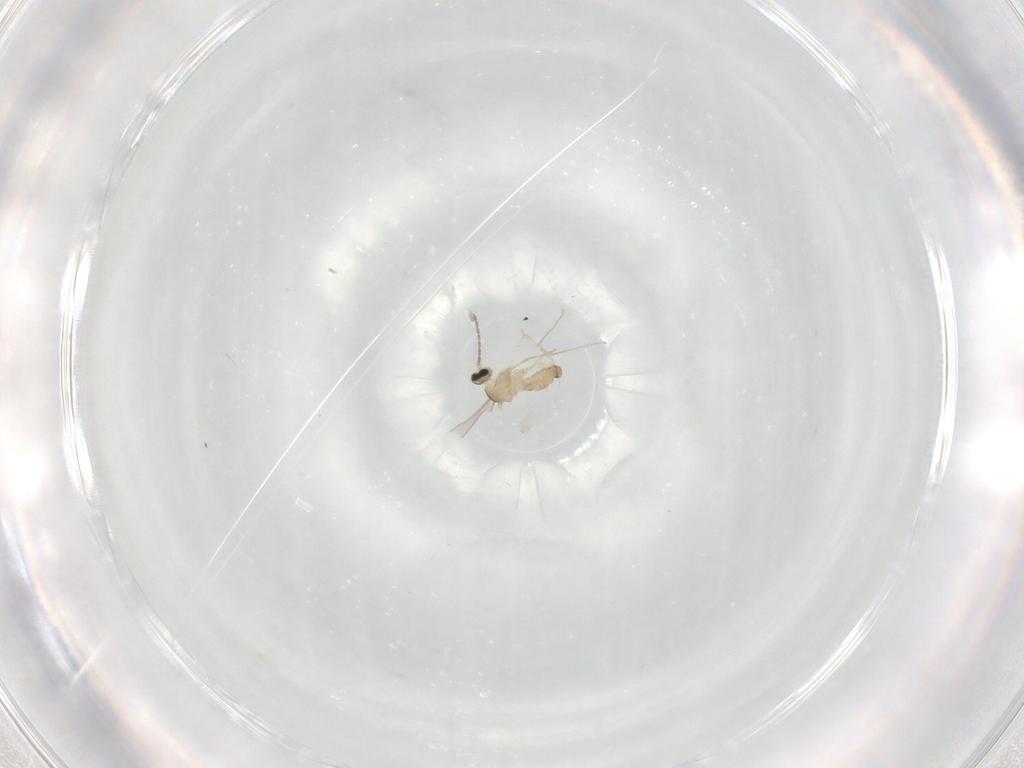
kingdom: Animalia
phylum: Arthropoda
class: Insecta
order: Diptera
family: Cecidomyiidae
